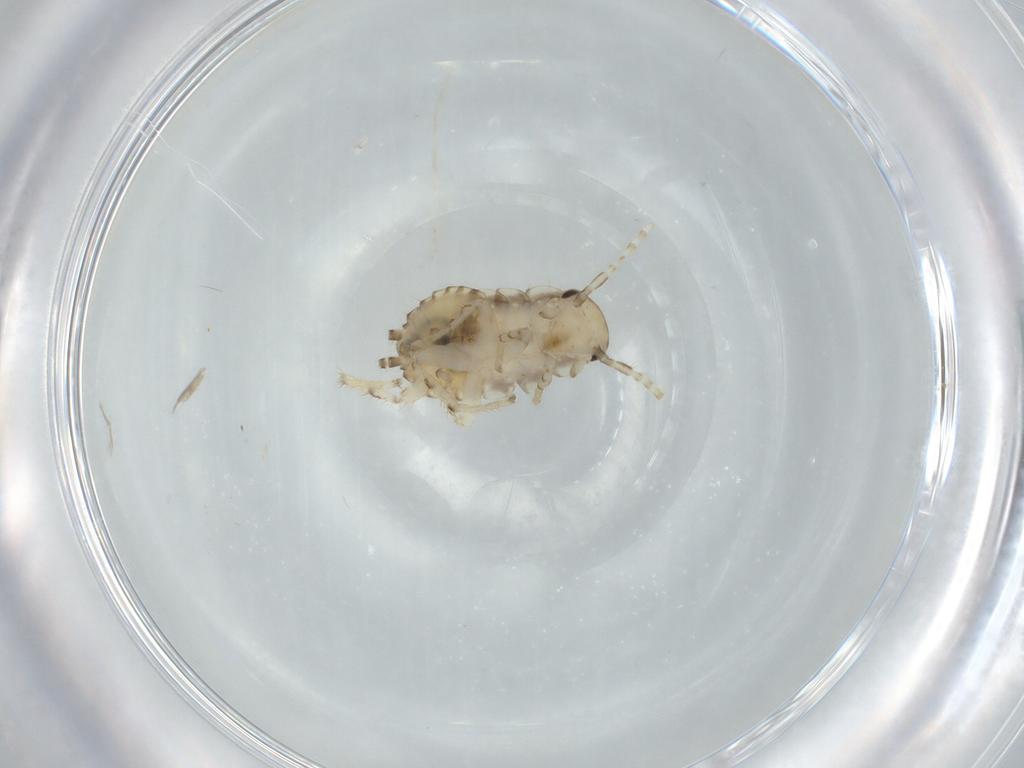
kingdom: Animalia
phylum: Arthropoda
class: Insecta
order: Blattodea
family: Ectobiidae
